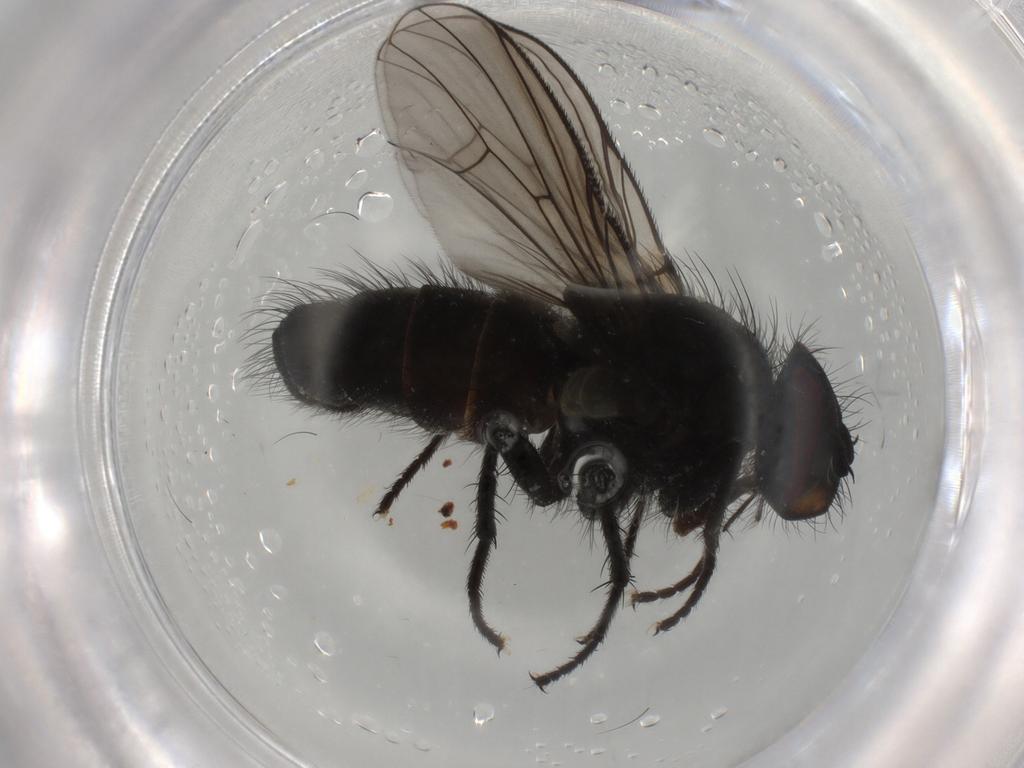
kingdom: Animalia
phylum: Arthropoda
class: Insecta
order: Diptera
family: Muscidae
